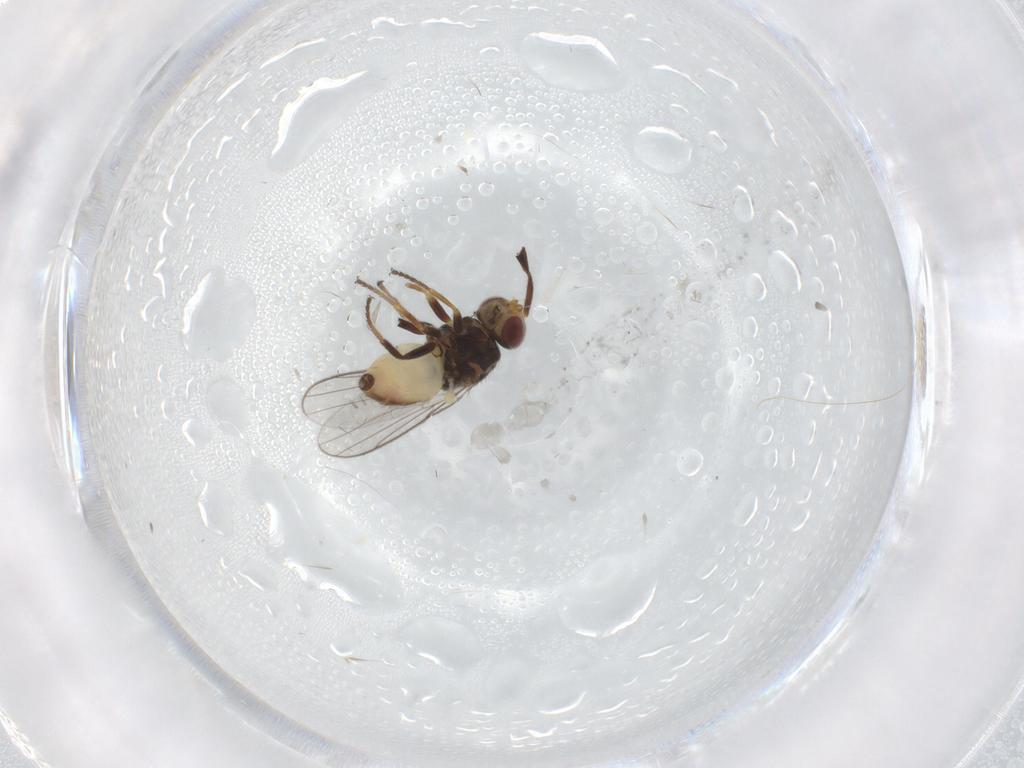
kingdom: Animalia
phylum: Arthropoda
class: Insecta
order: Diptera
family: Chloropidae
